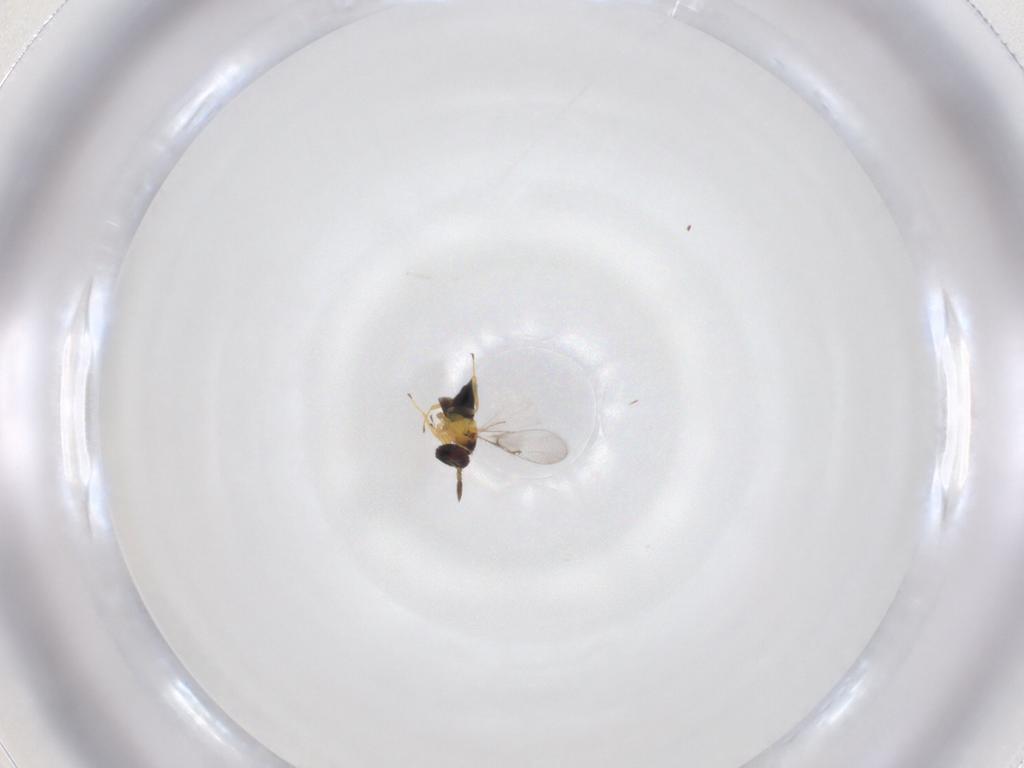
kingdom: Animalia
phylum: Arthropoda
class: Insecta
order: Hymenoptera
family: Trichogrammatidae
